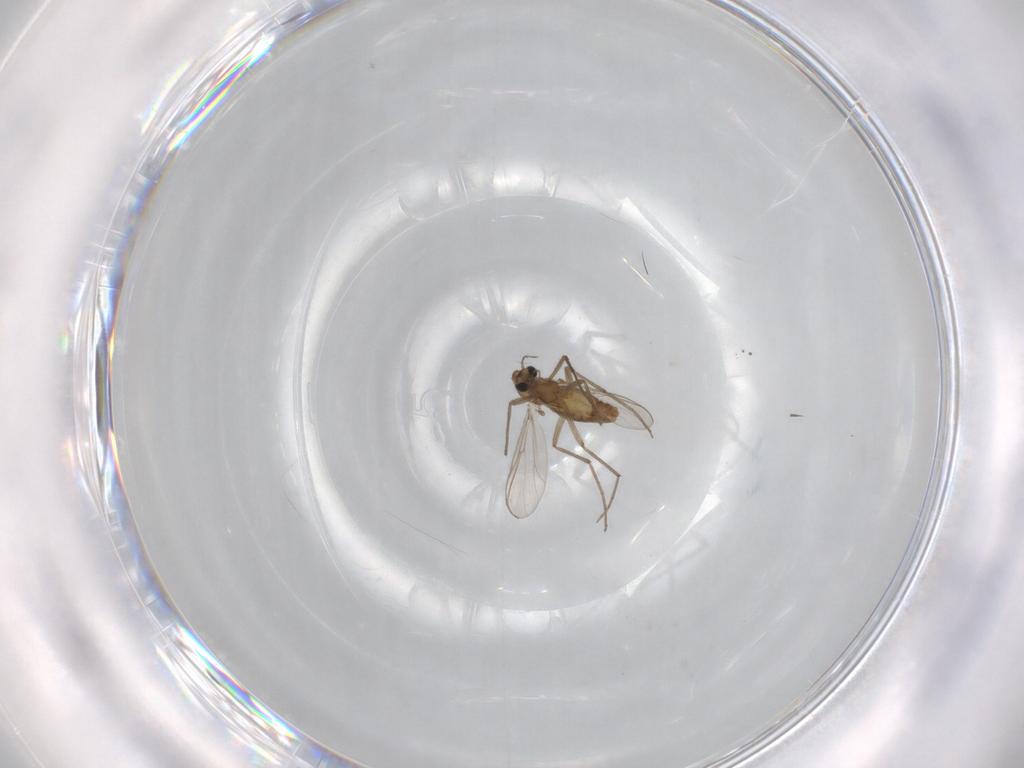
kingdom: Animalia
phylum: Arthropoda
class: Insecta
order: Diptera
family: Chironomidae
